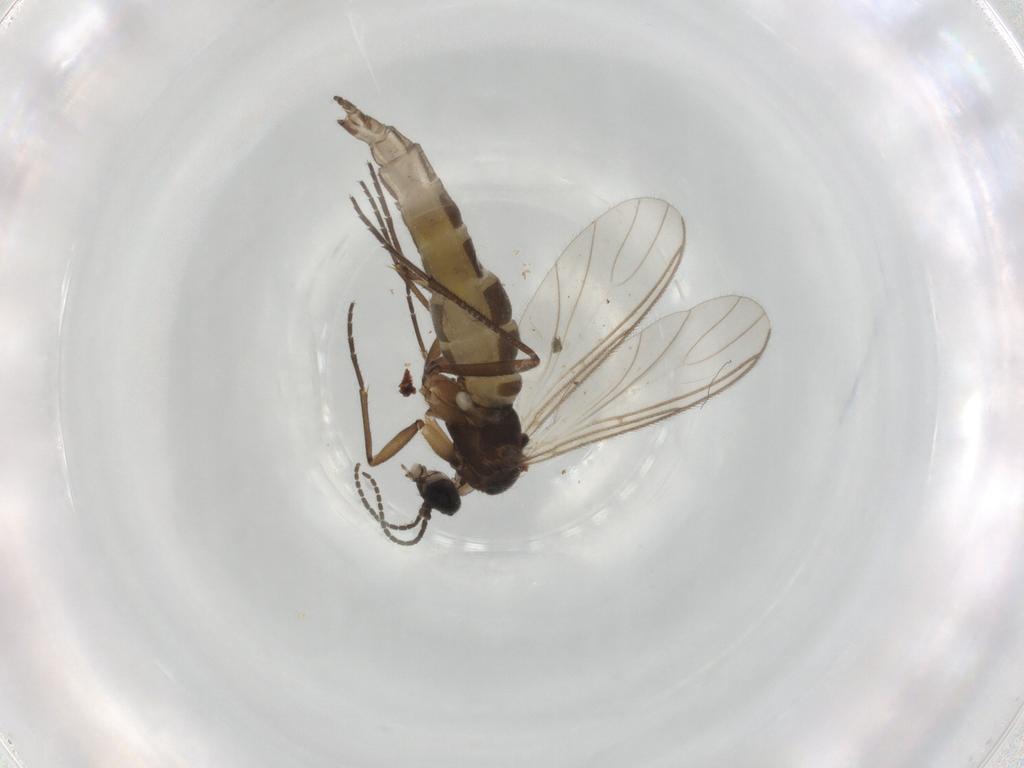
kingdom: Animalia
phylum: Arthropoda
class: Insecta
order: Diptera
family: Sciaridae
